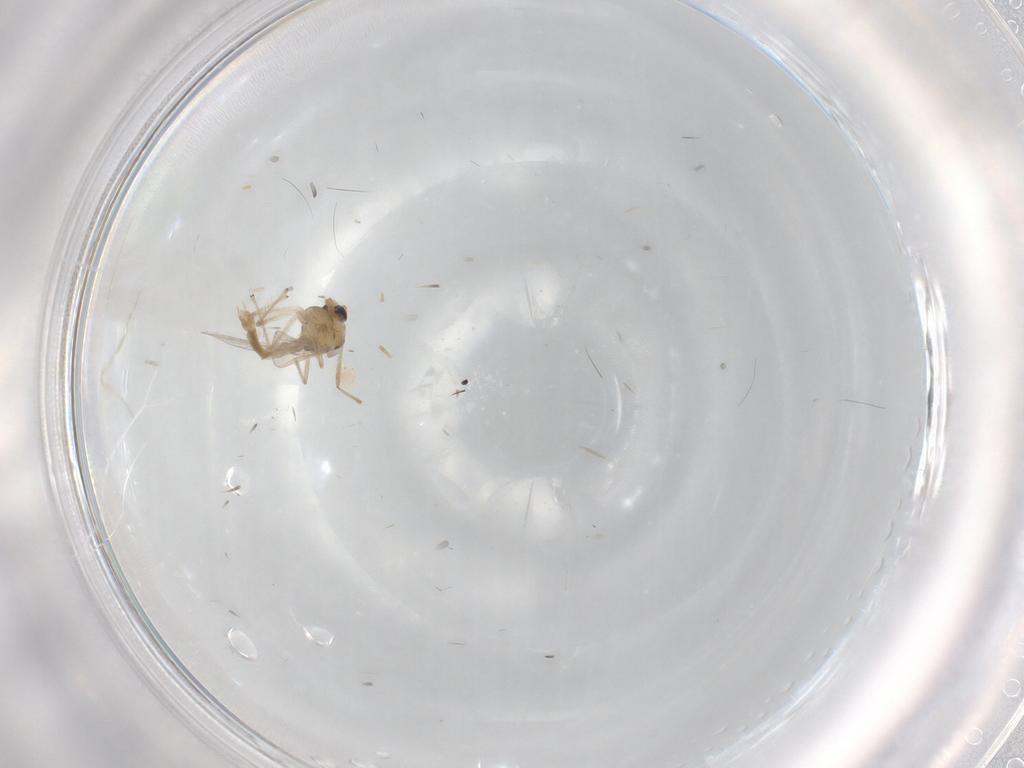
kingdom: Animalia
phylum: Arthropoda
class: Insecta
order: Diptera
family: Chironomidae
